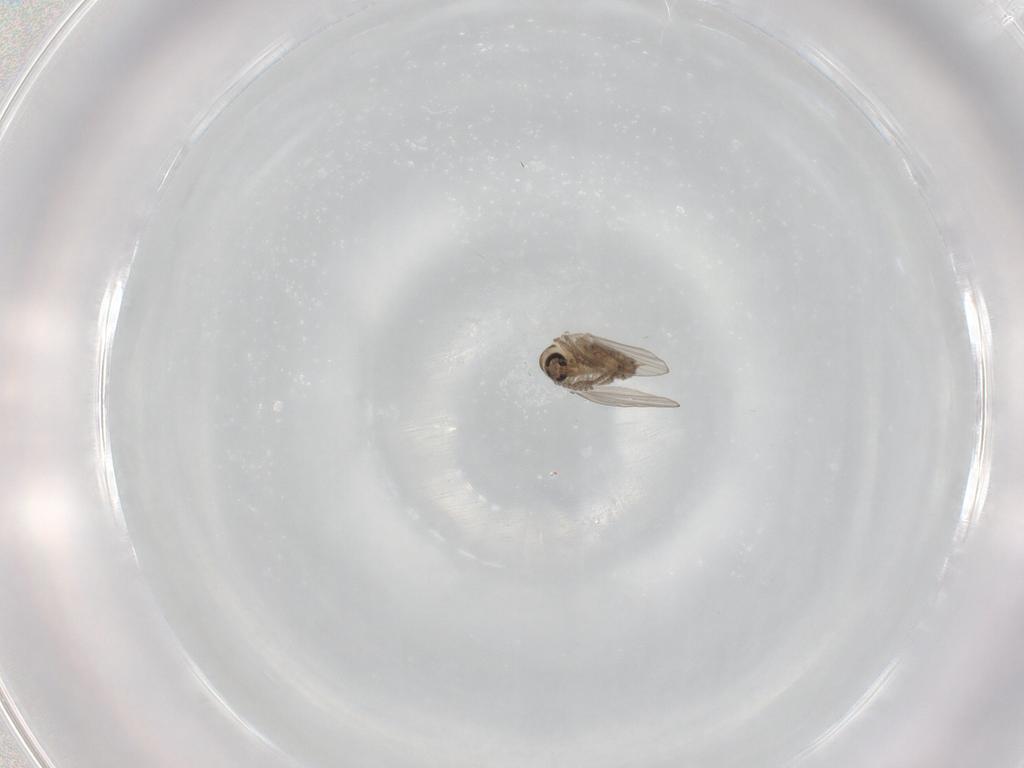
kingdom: Animalia
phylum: Arthropoda
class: Insecta
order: Diptera
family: Psychodidae
